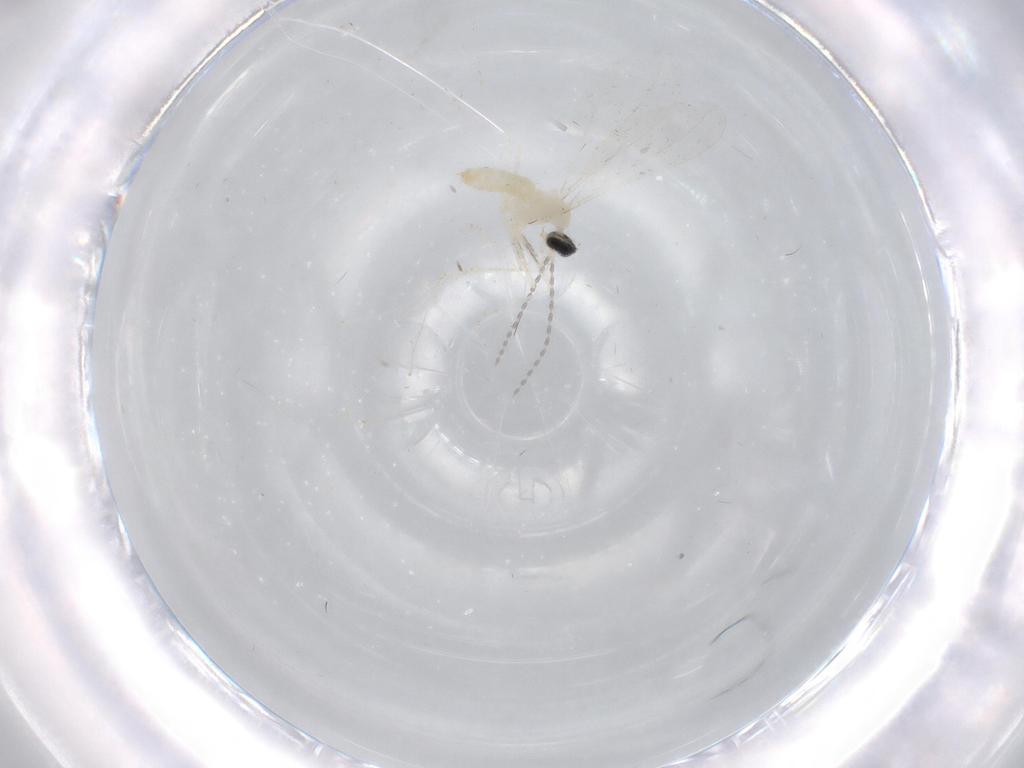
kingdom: Animalia
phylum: Arthropoda
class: Insecta
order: Diptera
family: Cecidomyiidae
